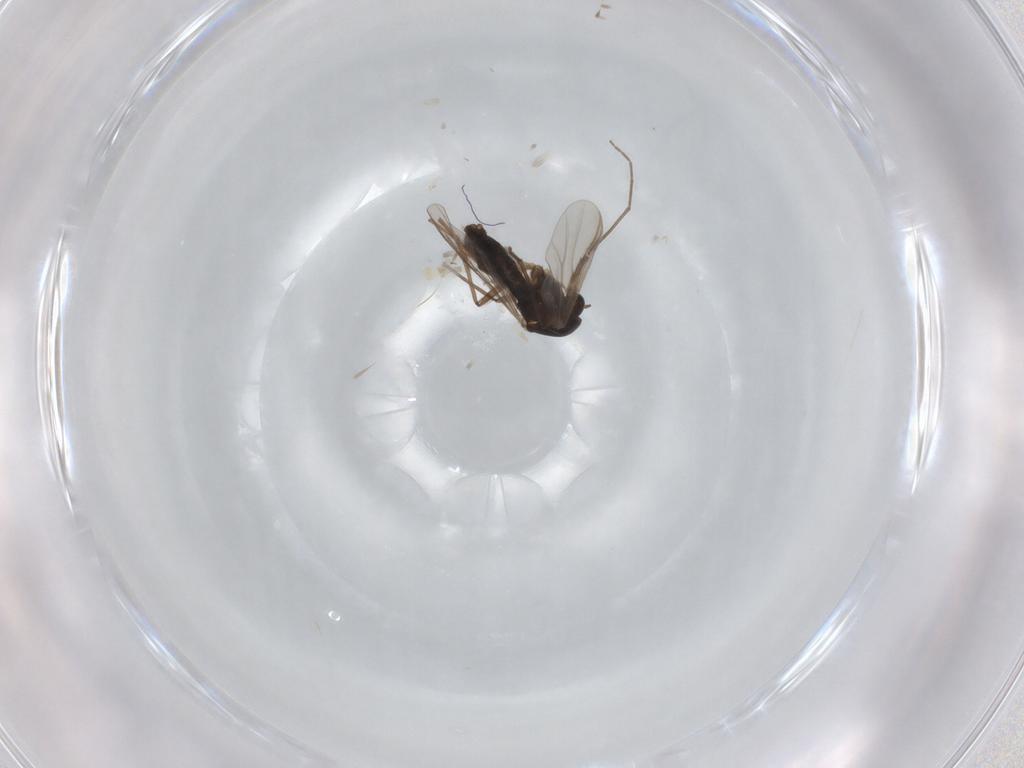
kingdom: Animalia
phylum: Arthropoda
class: Insecta
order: Diptera
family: Chironomidae
